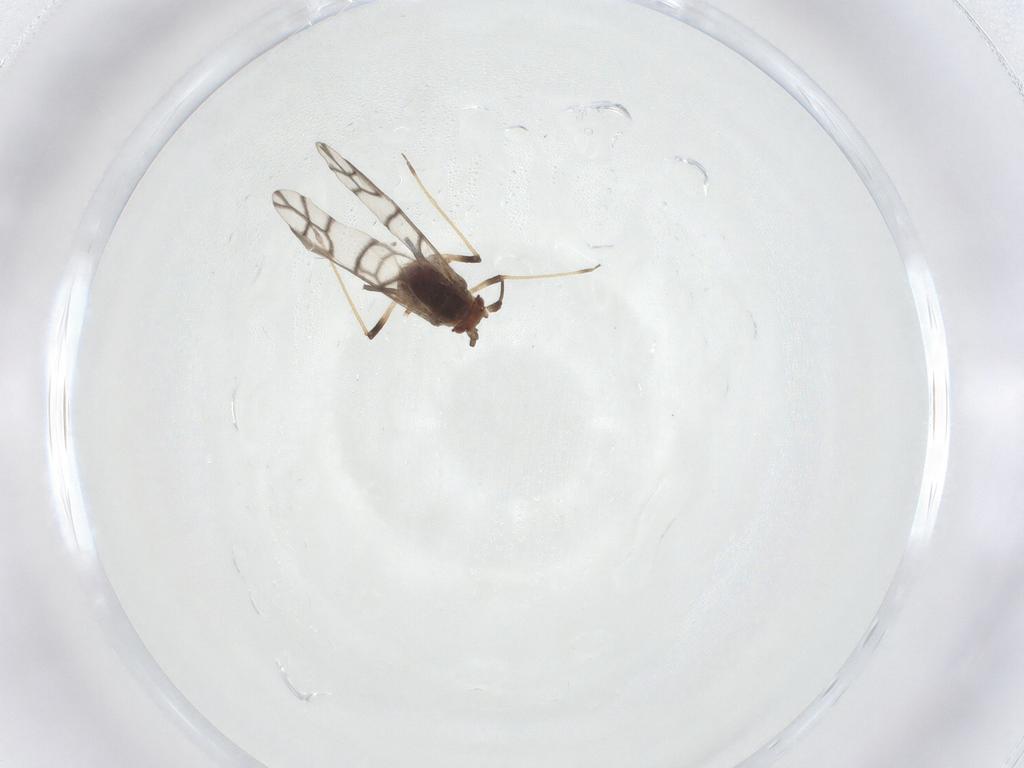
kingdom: Animalia
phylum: Arthropoda
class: Insecta
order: Hemiptera
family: Aphididae
